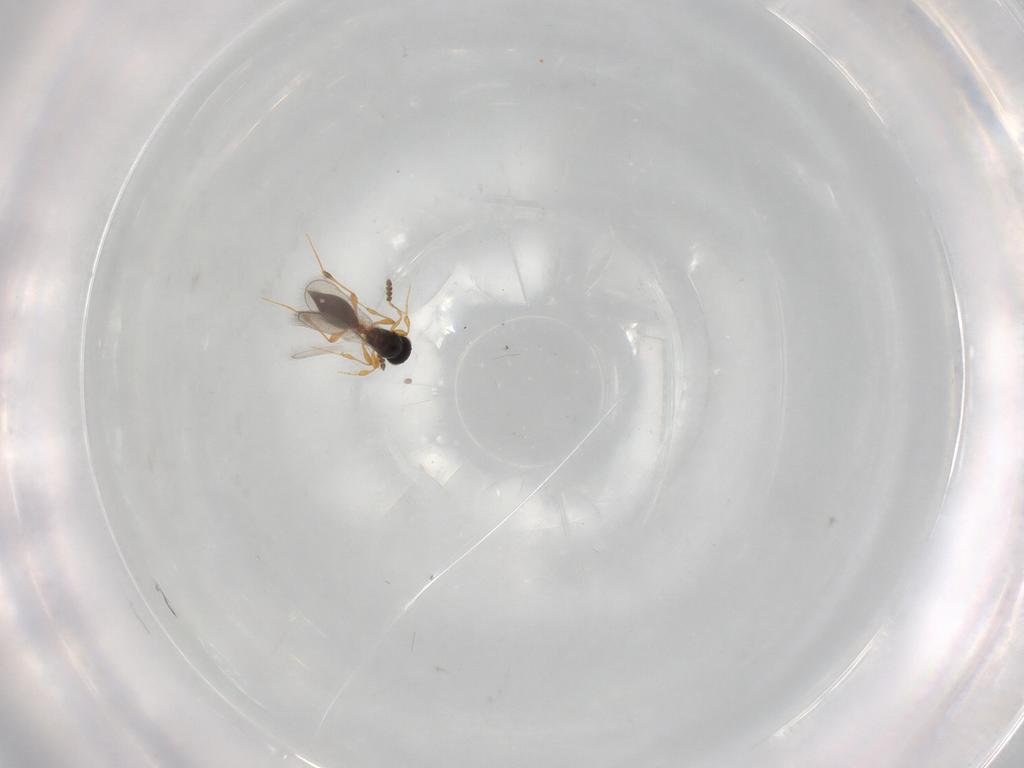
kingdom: Animalia
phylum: Arthropoda
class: Insecta
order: Hymenoptera
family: Platygastridae
